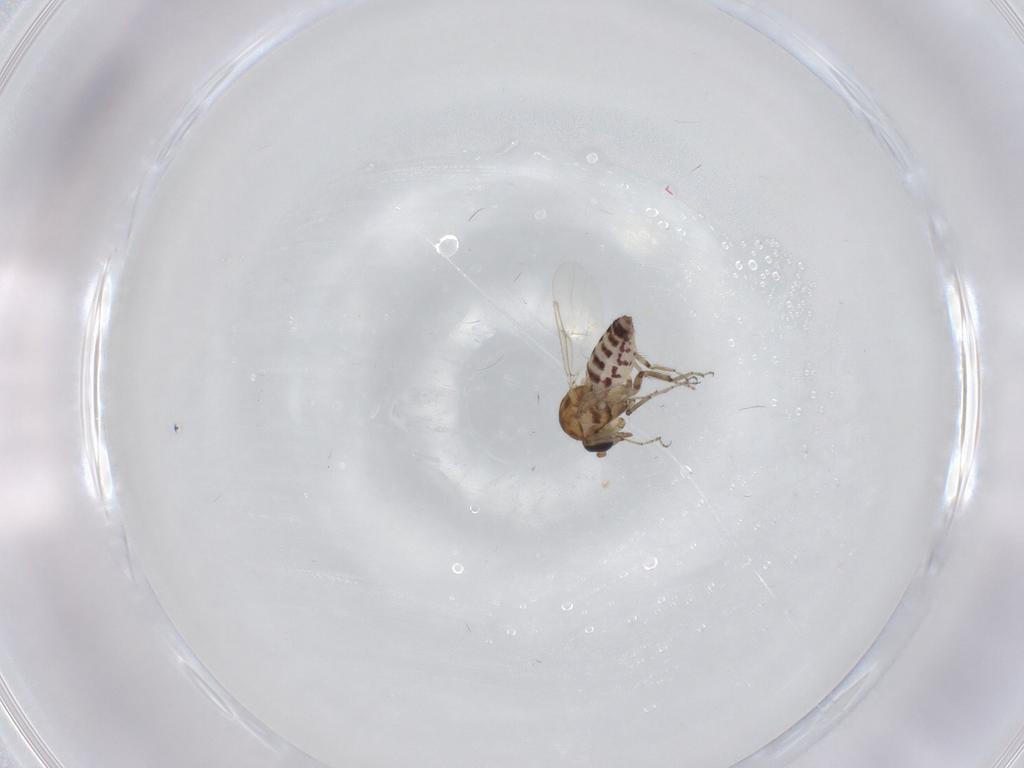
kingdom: Animalia
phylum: Arthropoda
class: Insecta
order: Diptera
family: Ceratopogonidae
